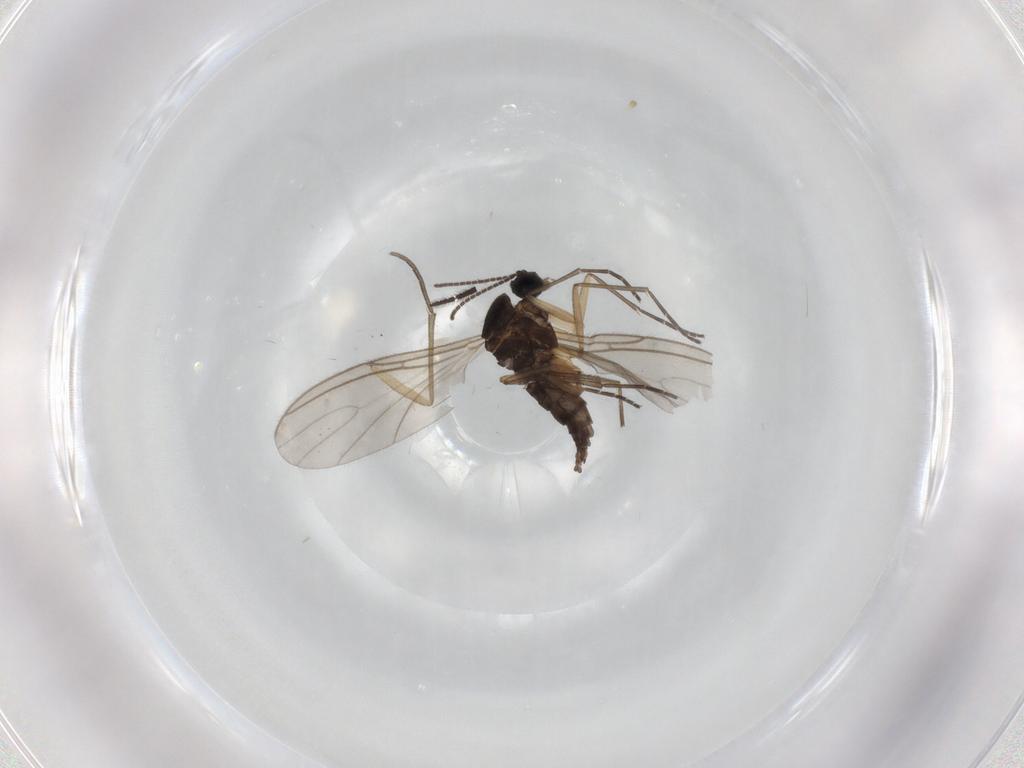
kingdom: Animalia
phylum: Arthropoda
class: Insecta
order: Diptera
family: Sciaridae
